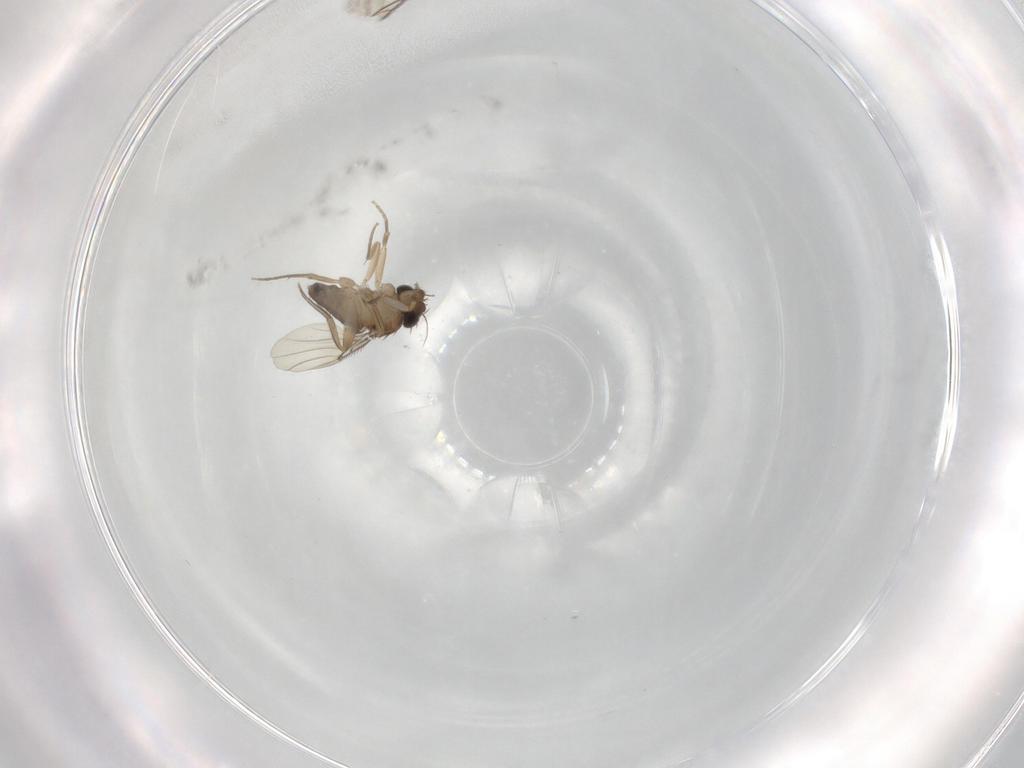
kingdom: Animalia
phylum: Arthropoda
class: Insecta
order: Diptera
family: Phoridae
